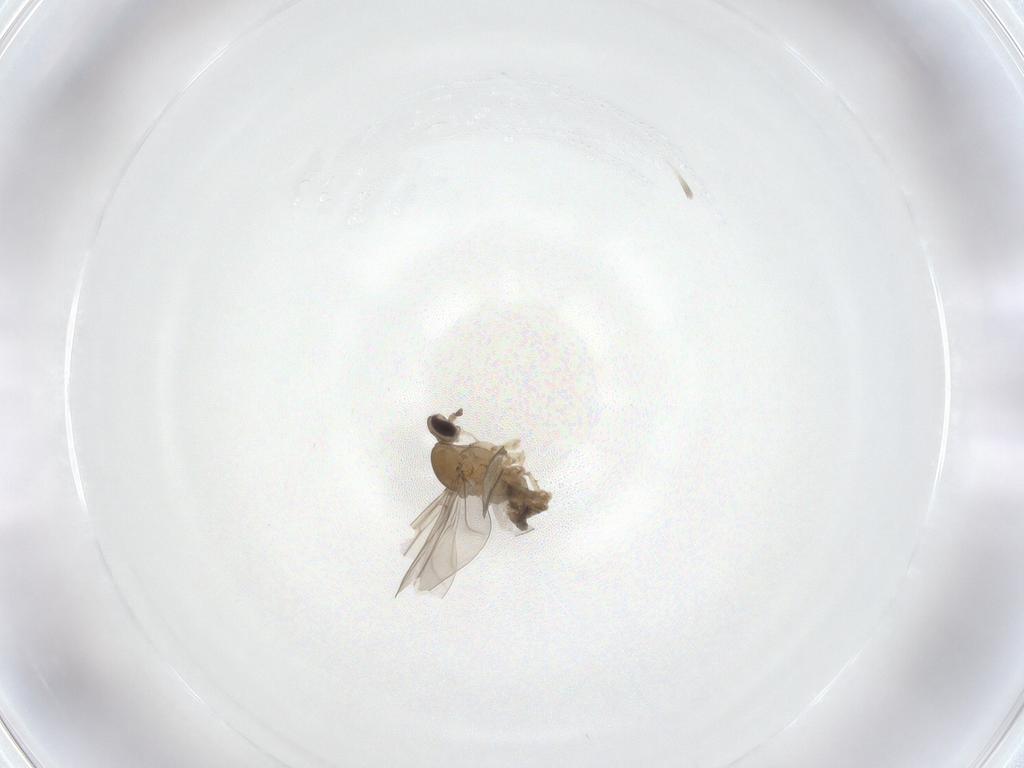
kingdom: Animalia
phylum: Arthropoda
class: Insecta
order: Diptera
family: Cecidomyiidae
